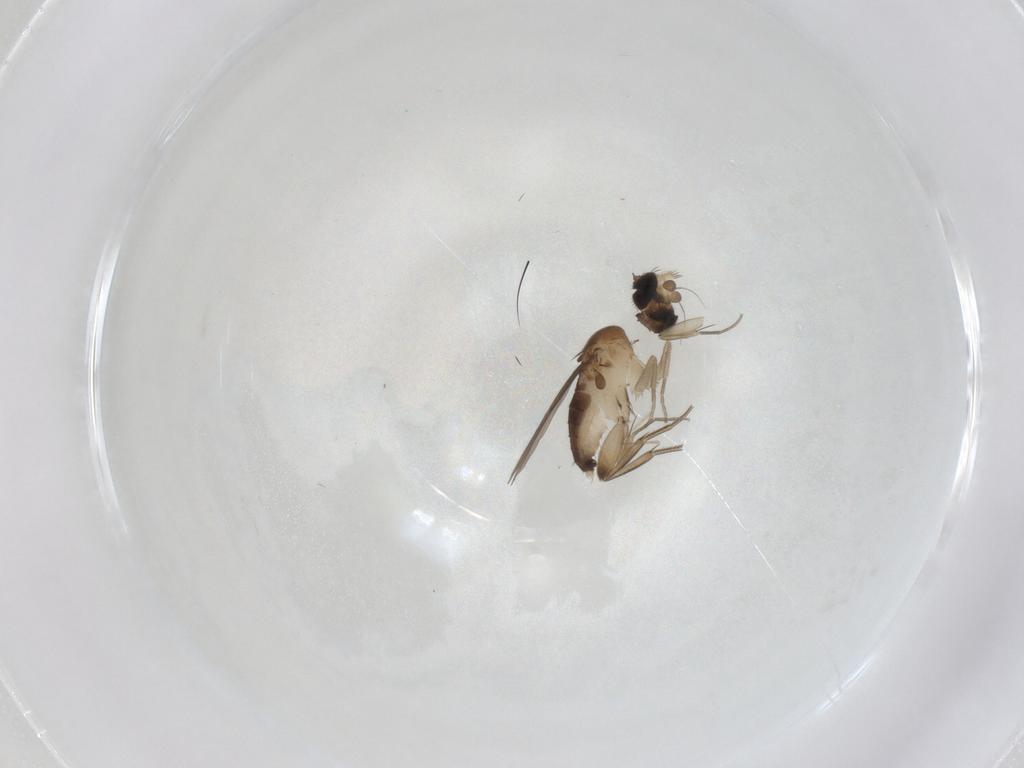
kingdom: Animalia
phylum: Arthropoda
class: Insecta
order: Diptera
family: Phoridae
